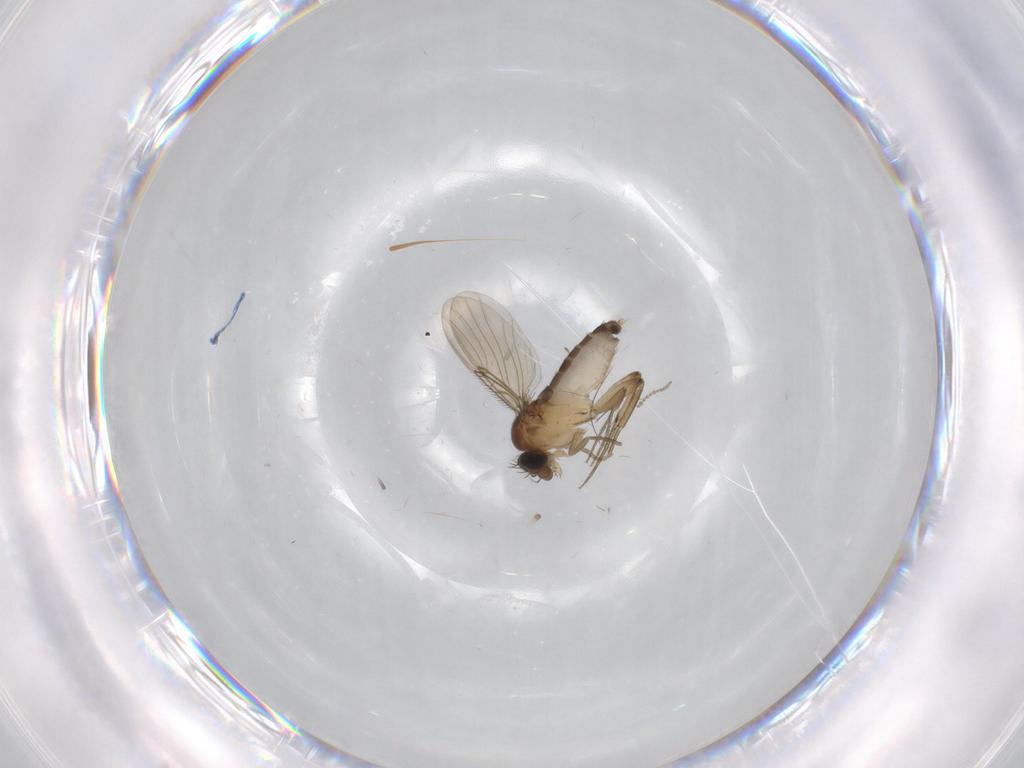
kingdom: Animalia
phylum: Arthropoda
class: Insecta
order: Diptera
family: Phoridae
